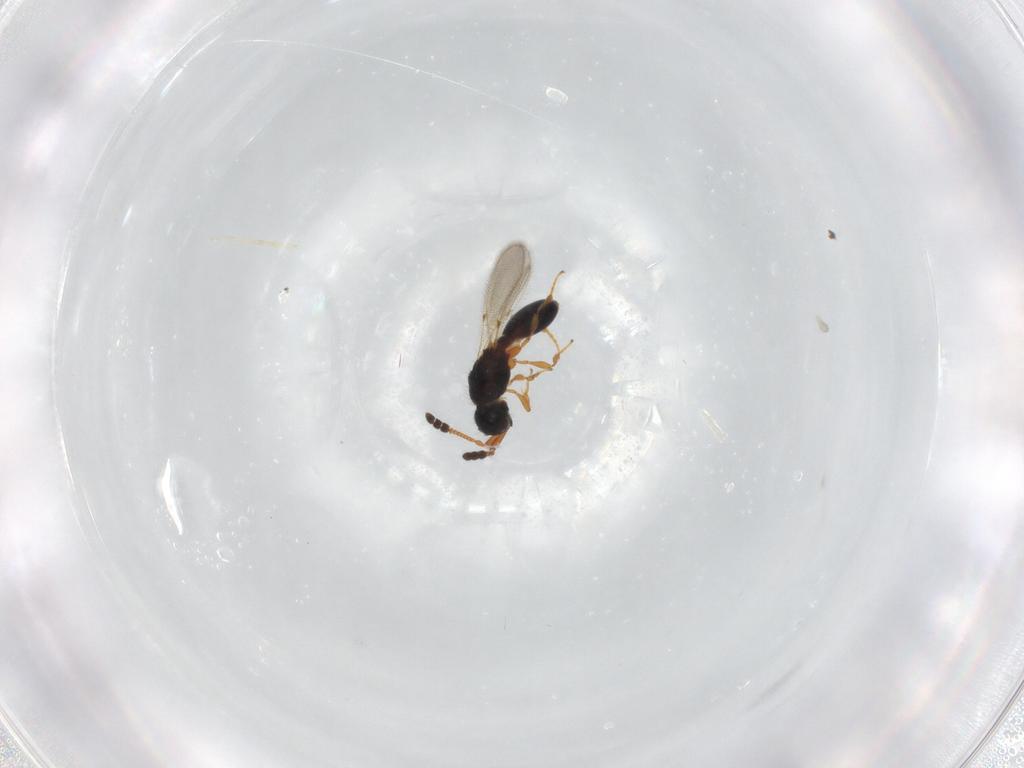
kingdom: Animalia
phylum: Arthropoda
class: Insecta
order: Hymenoptera
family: Diapriidae
